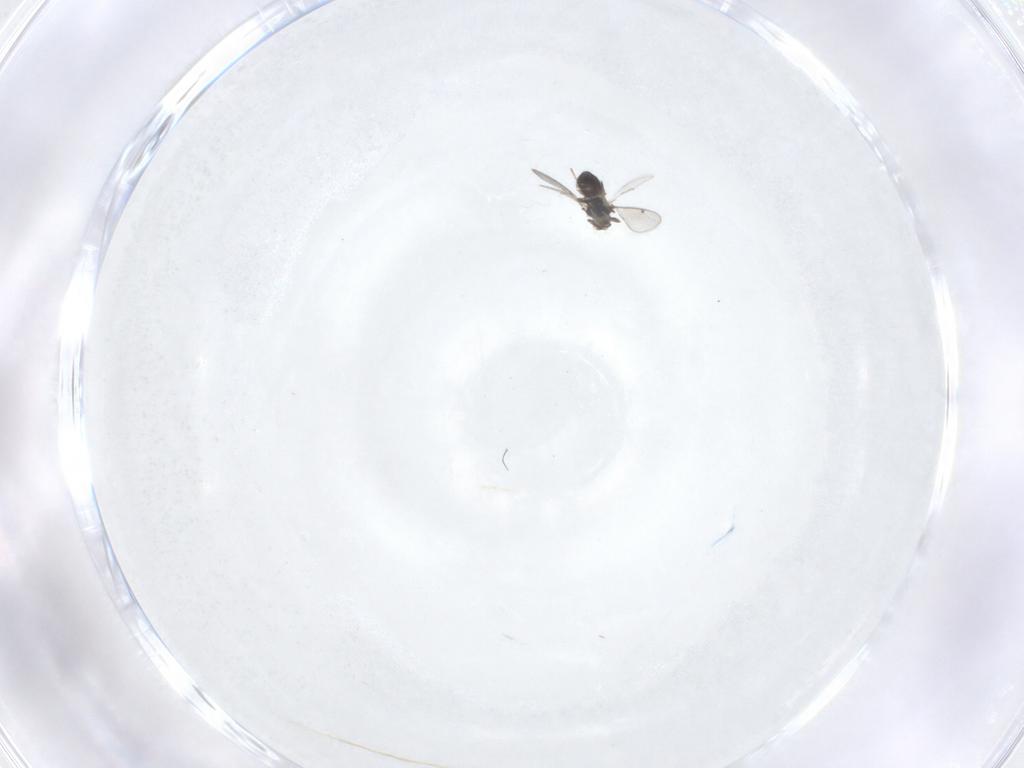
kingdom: Animalia
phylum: Arthropoda
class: Insecta
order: Hymenoptera
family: Eulophidae
